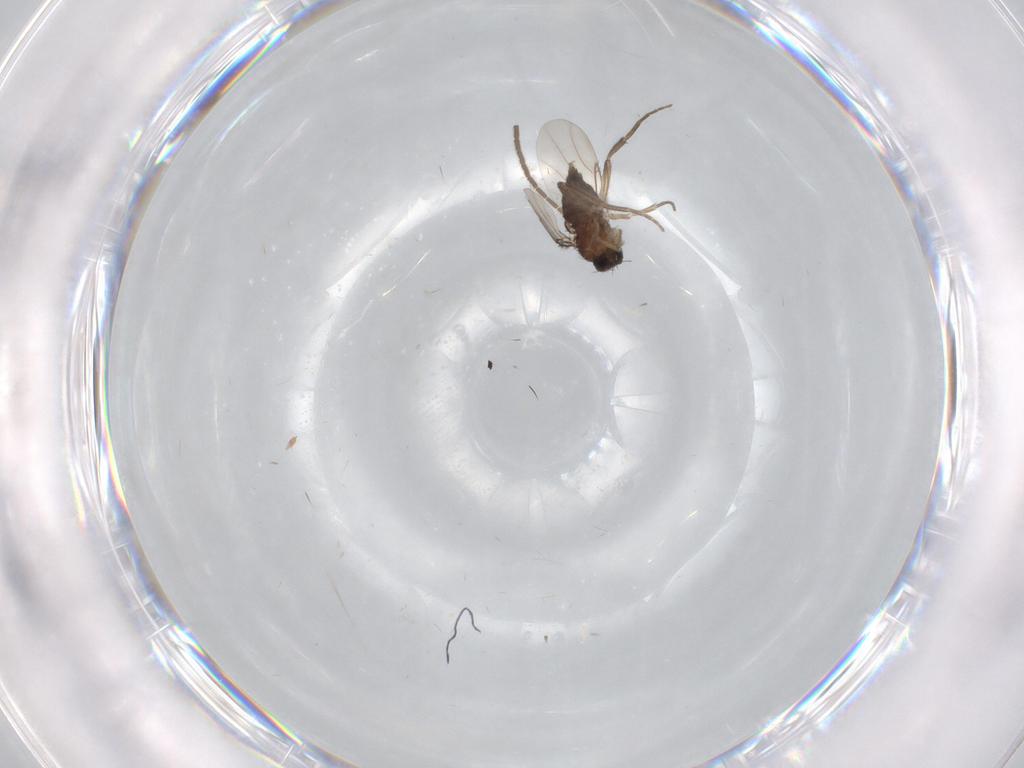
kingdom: Animalia
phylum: Arthropoda
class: Insecta
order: Diptera
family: Phoridae
